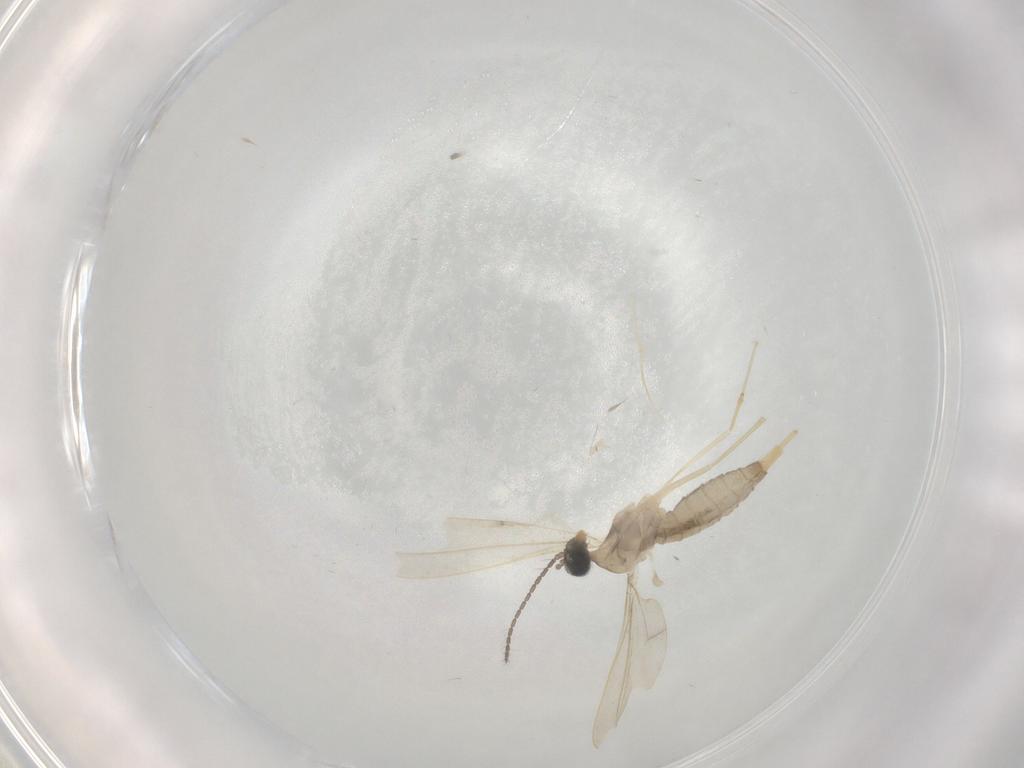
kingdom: Animalia
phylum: Arthropoda
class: Insecta
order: Diptera
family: Cecidomyiidae
